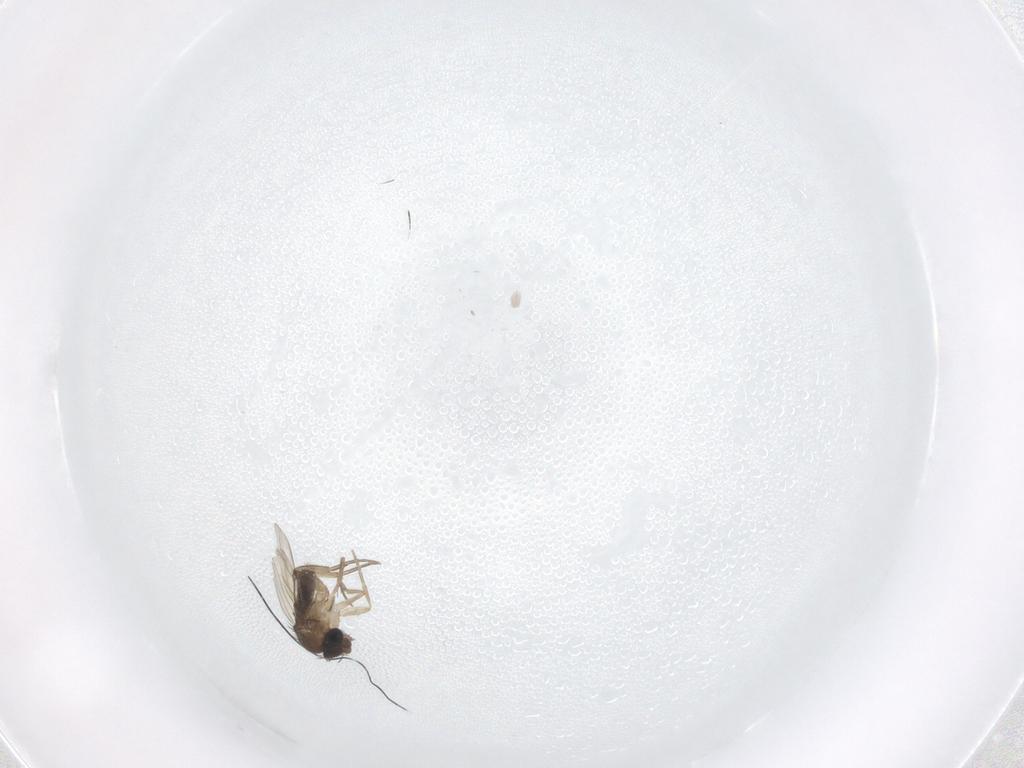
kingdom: Animalia
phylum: Arthropoda
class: Insecta
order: Diptera
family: Phoridae
